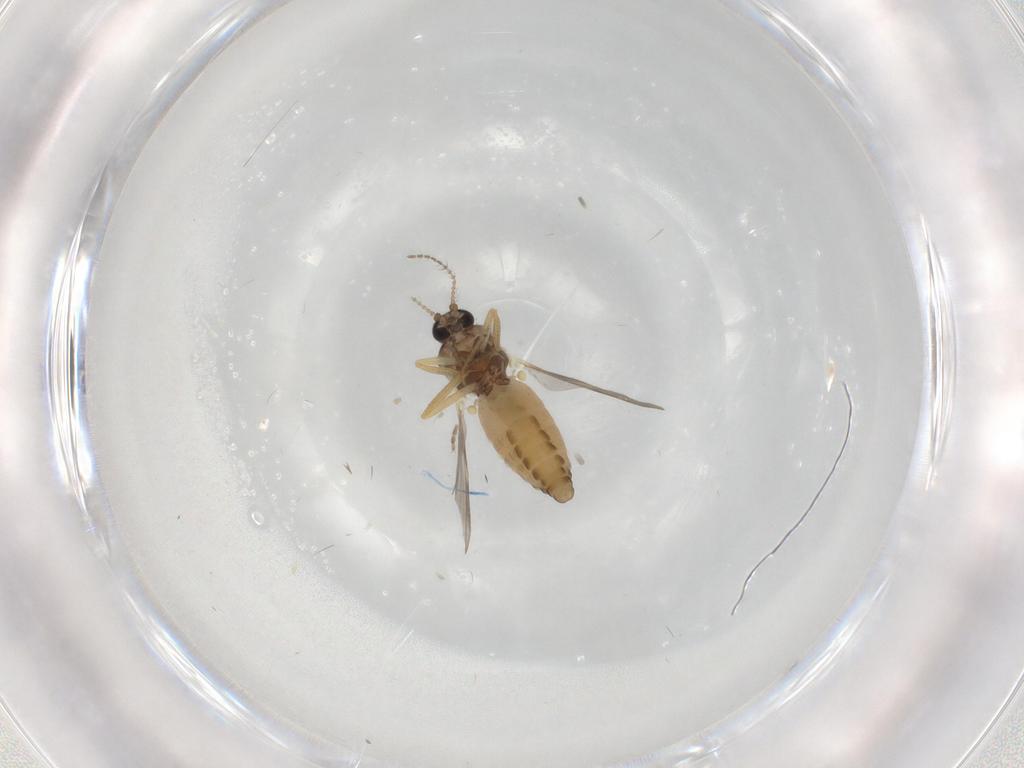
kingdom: Animalia
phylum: Arthropoda
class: Insecta
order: Diptera
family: Ceratopogonidae
